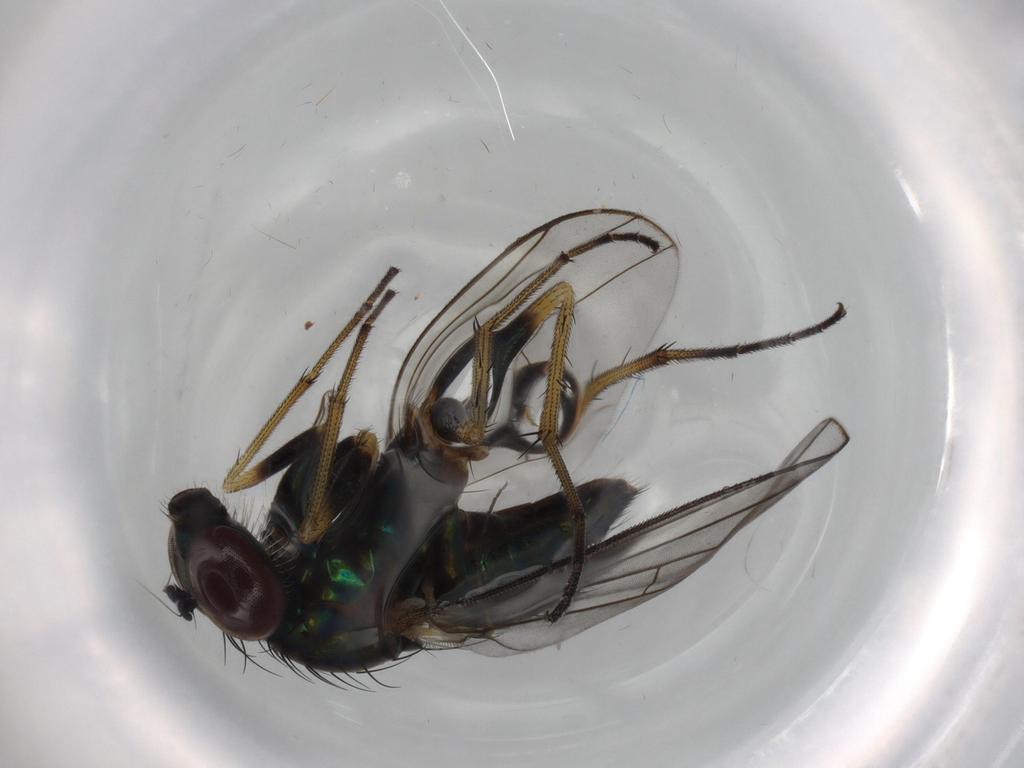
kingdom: Animalia
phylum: Arthropoda
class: Insecta
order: Diptera
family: Dolichopodidae
